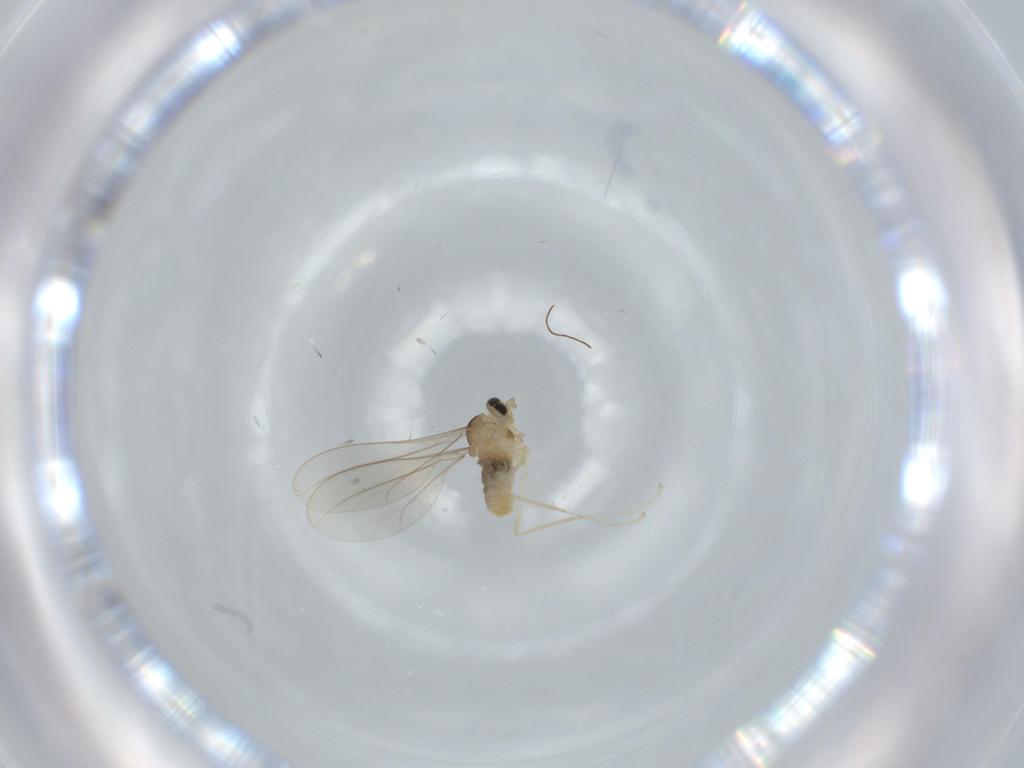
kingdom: Animalia
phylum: Arthropoda
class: Insecta
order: Diptera
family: Cecidomyiidae
